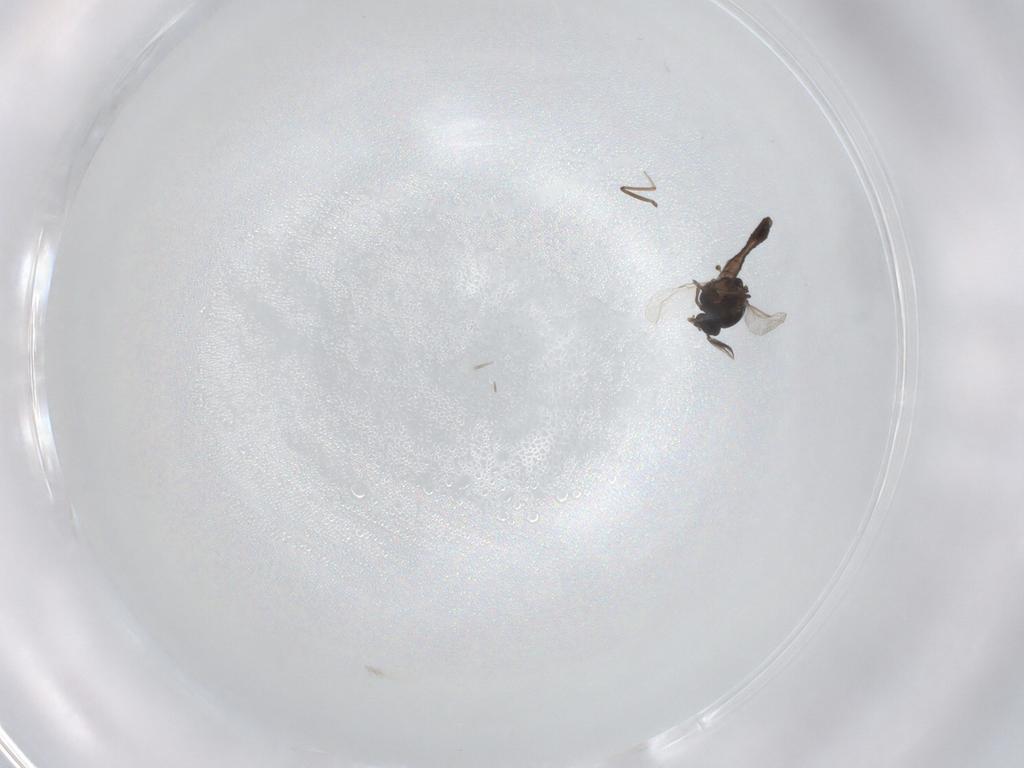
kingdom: Animalia
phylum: Arthropoda
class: Insecta
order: Diptera
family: Ceratopogonidae
